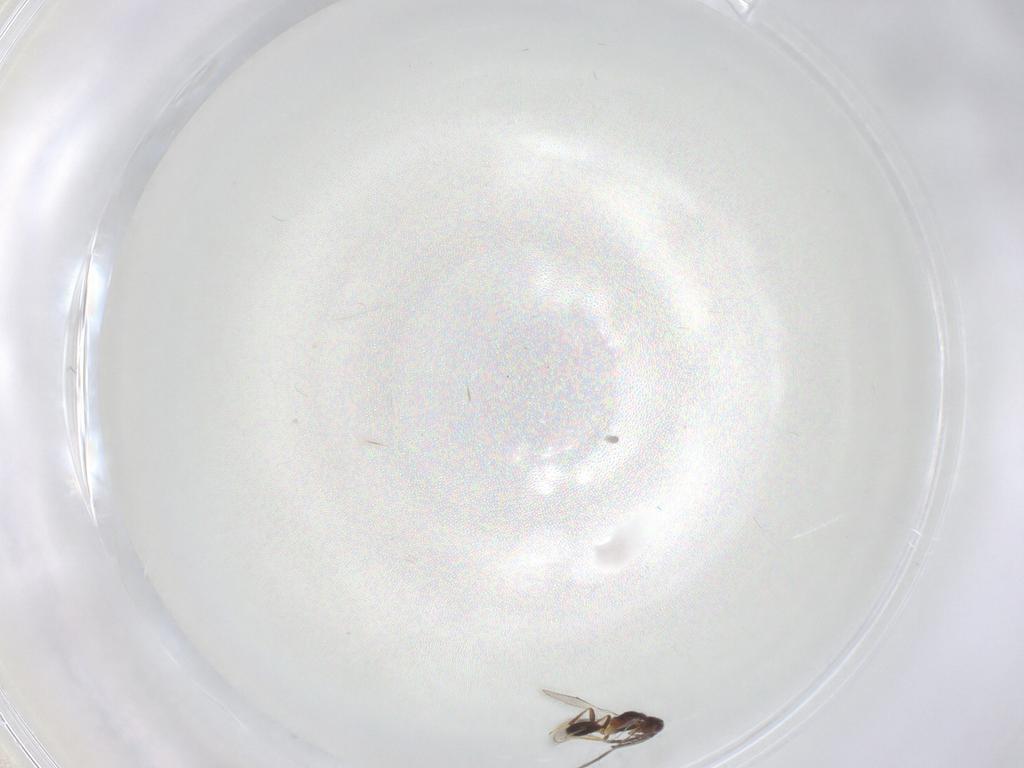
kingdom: Animalia
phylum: Arthropoda
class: Insecta
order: Hymenoptera
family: Pteromalidae
